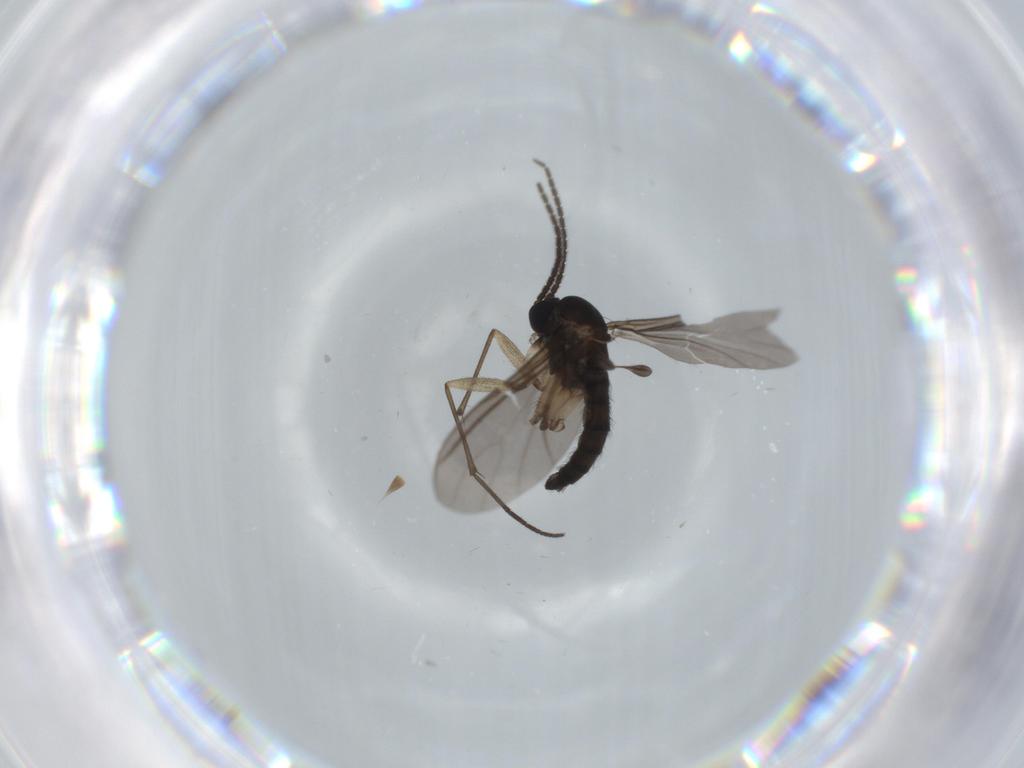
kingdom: Animalia
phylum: Arthropoda
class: Insecta
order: Diptera
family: Sciaridae
